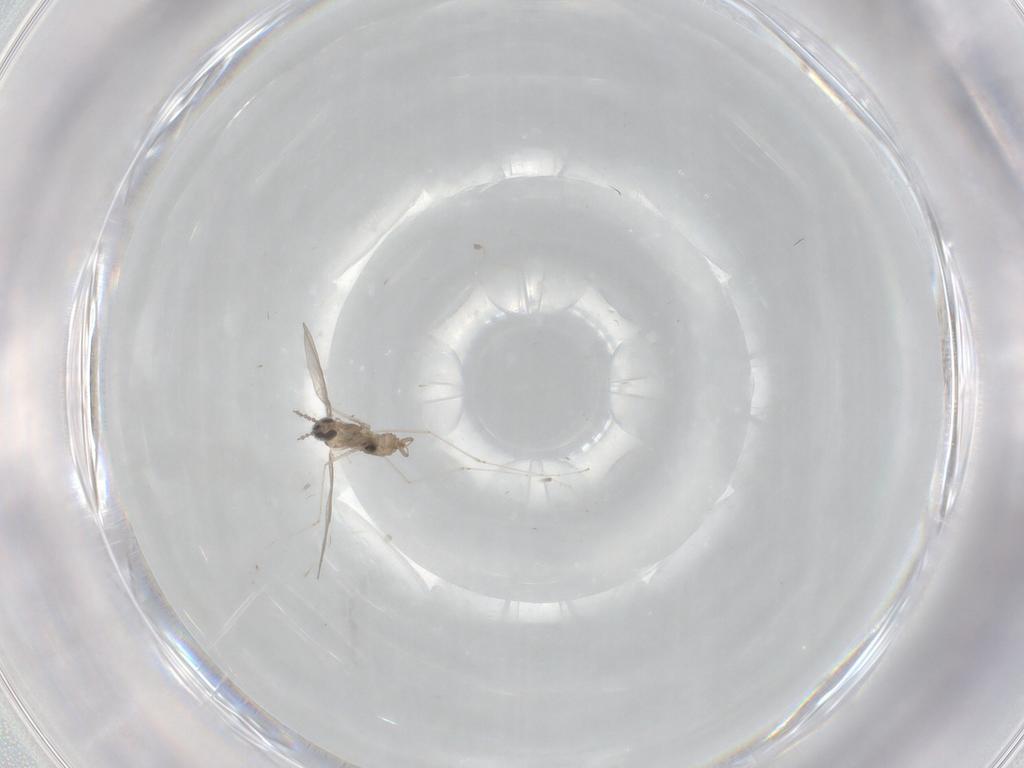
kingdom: Animalia
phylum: Arthropoda
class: Insecta
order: Diptera
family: Cecidomyiidae
